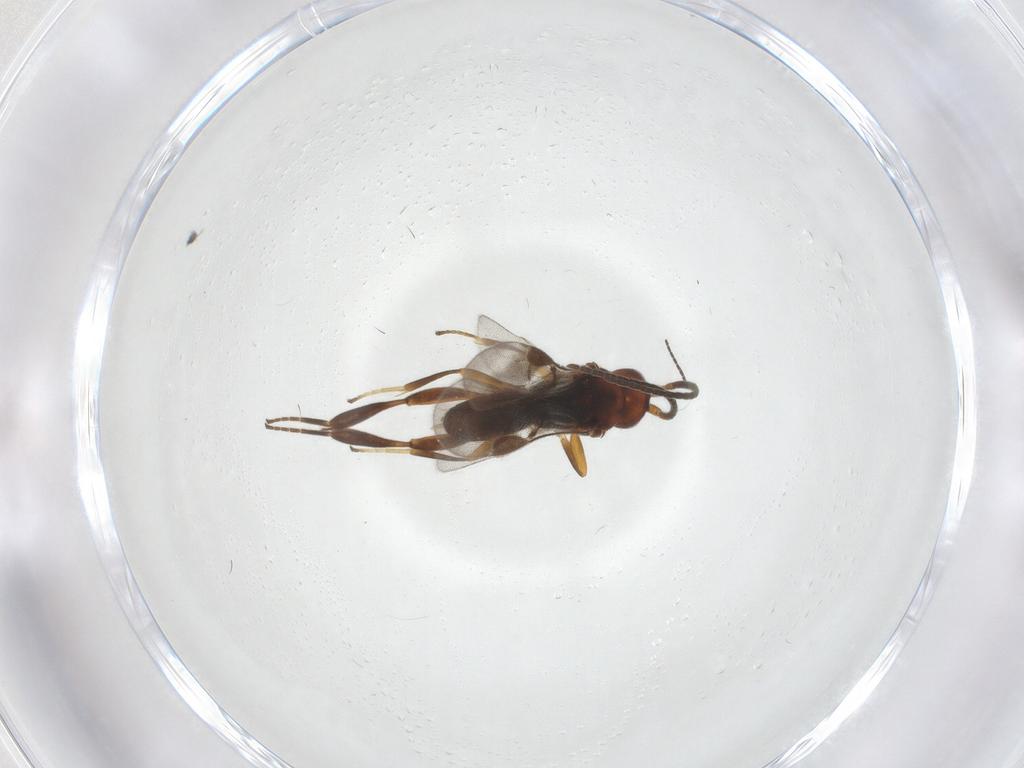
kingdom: Animalia
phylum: Arthropoda
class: Insecta
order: Hymenoptera
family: Braconidae
